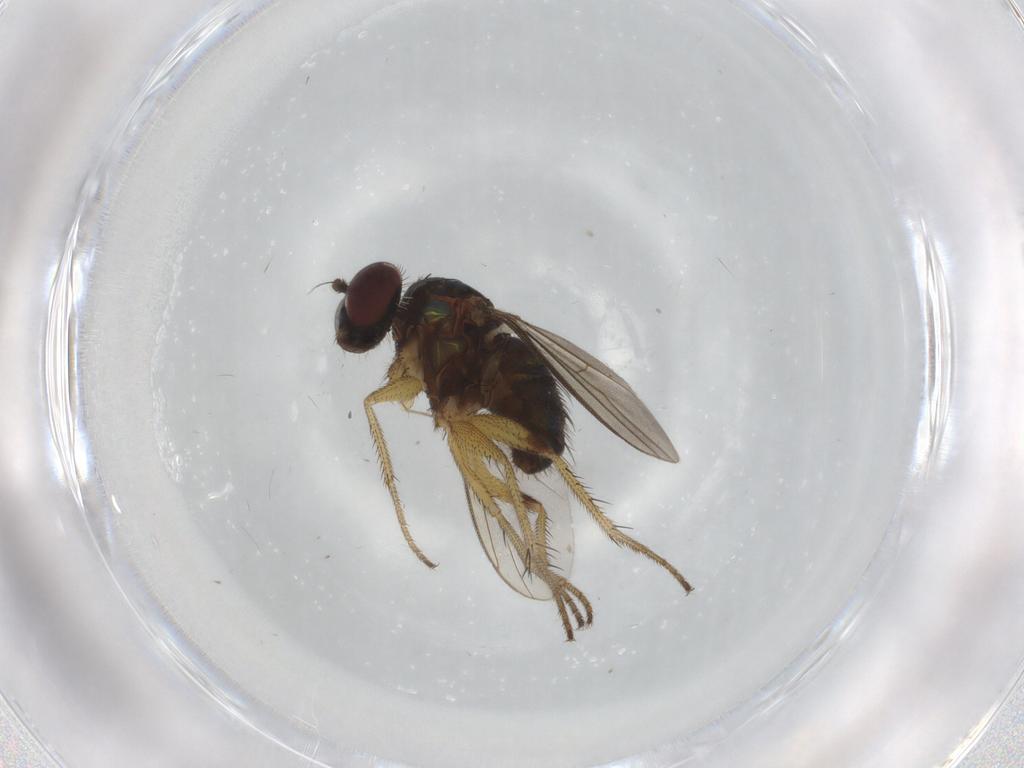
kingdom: Animalia
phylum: Arthropoda
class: Insecta
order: Diptera
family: Dolichopodidae
